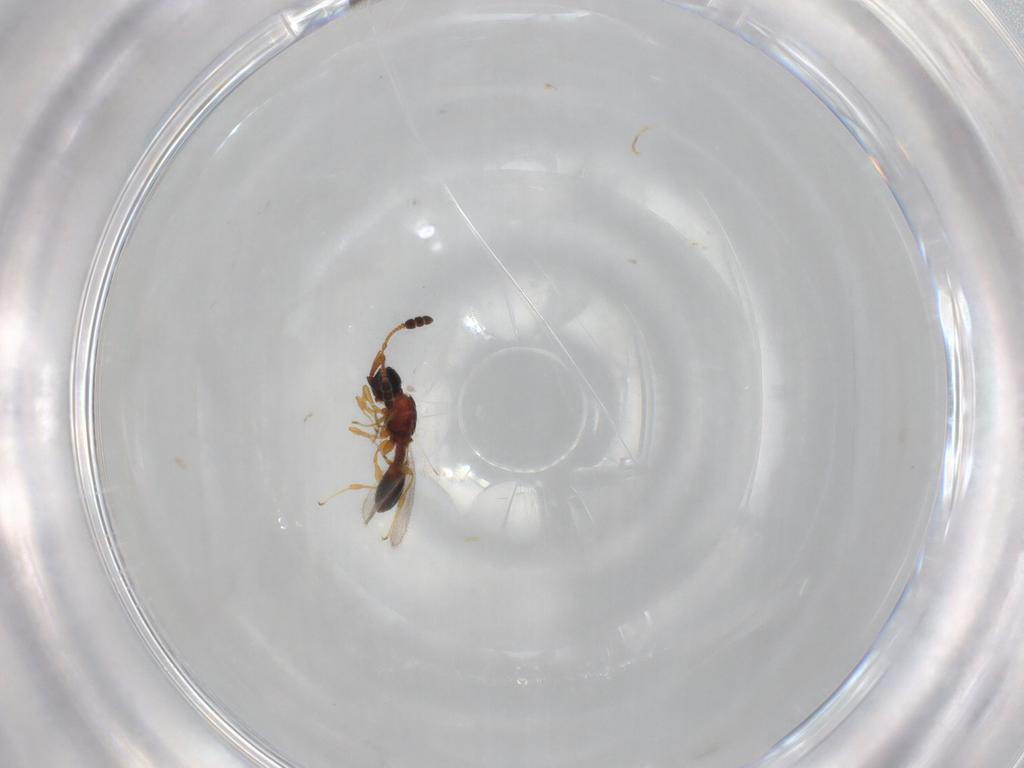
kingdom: Animalia
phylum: Arthropoda
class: Insecta
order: Hymenoptera
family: Diapriidae
